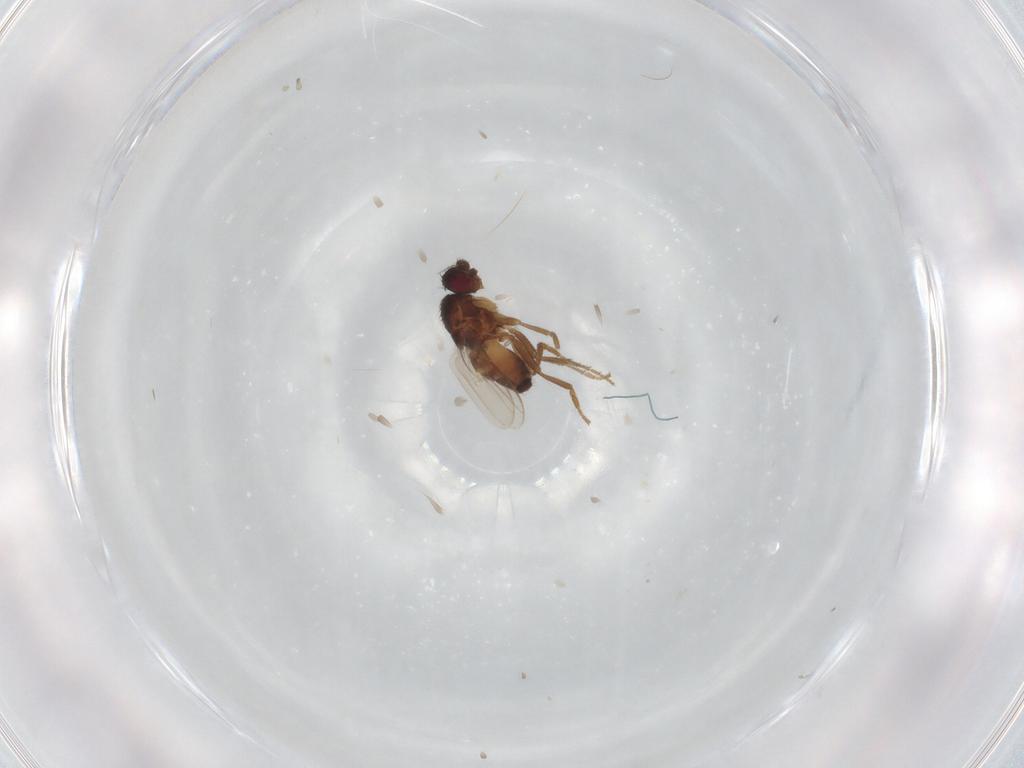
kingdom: Animalia
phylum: Arthropoda
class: Insecta
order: Diptera
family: Sphaeroceridae
